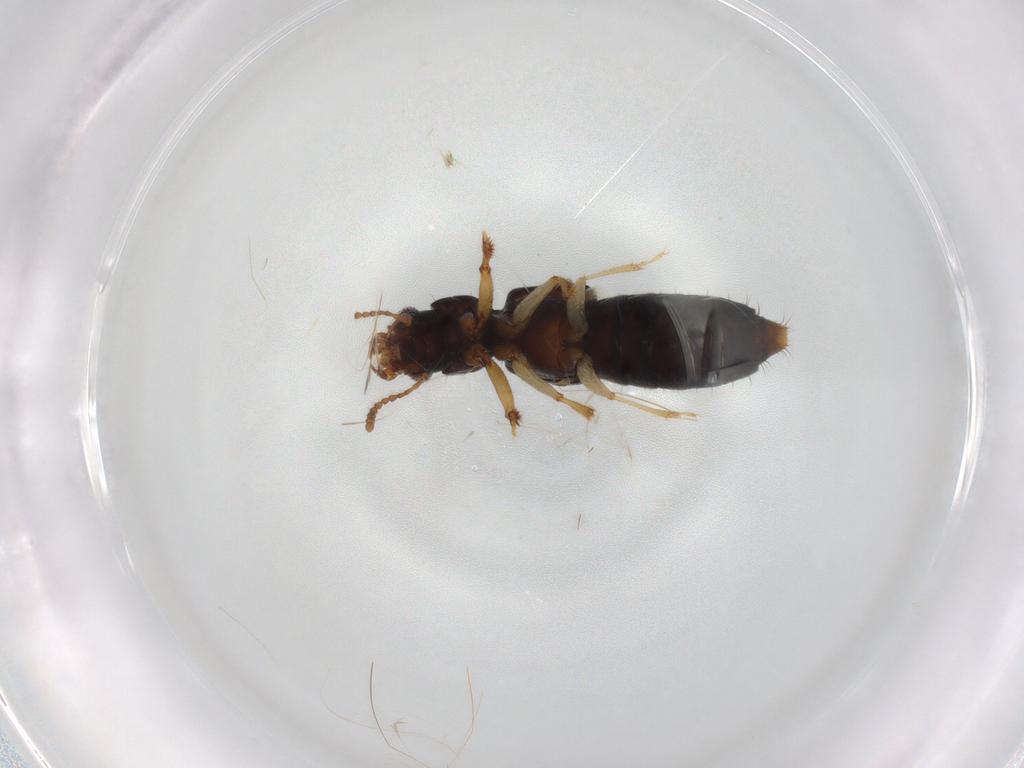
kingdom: Animalia
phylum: Arthropoda
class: Insecta
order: Coleoptera
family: Staphylinidae
